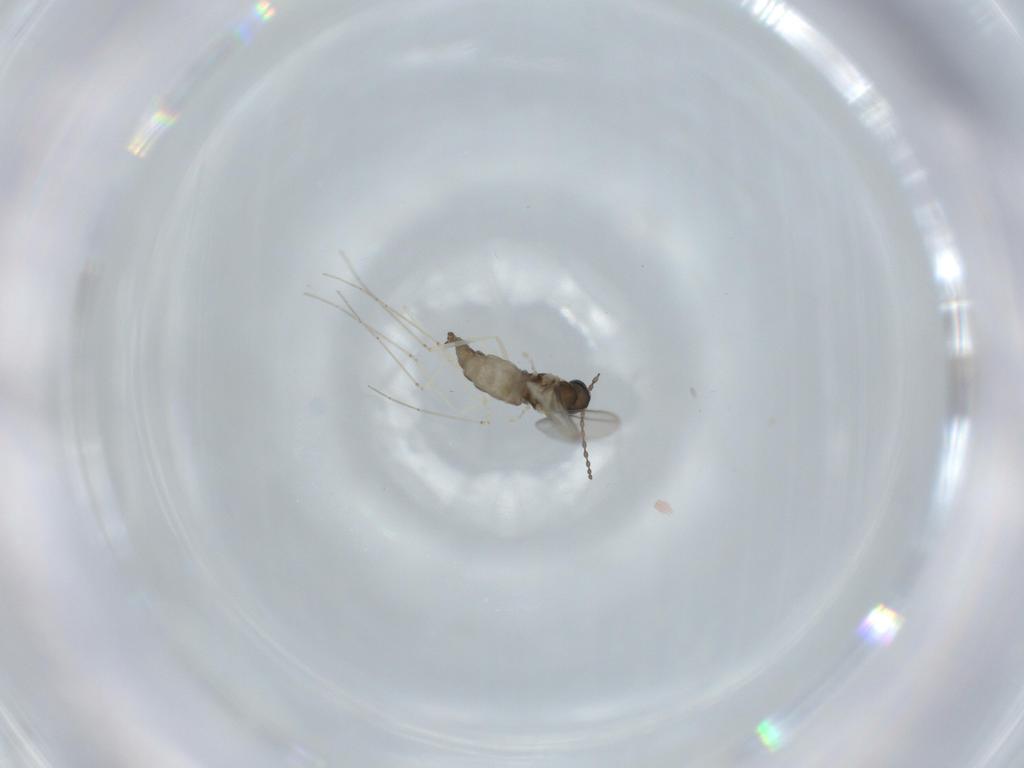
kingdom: Animalia
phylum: Arthropoda
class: Insecta
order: Diptera
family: Cecidomyiidae
